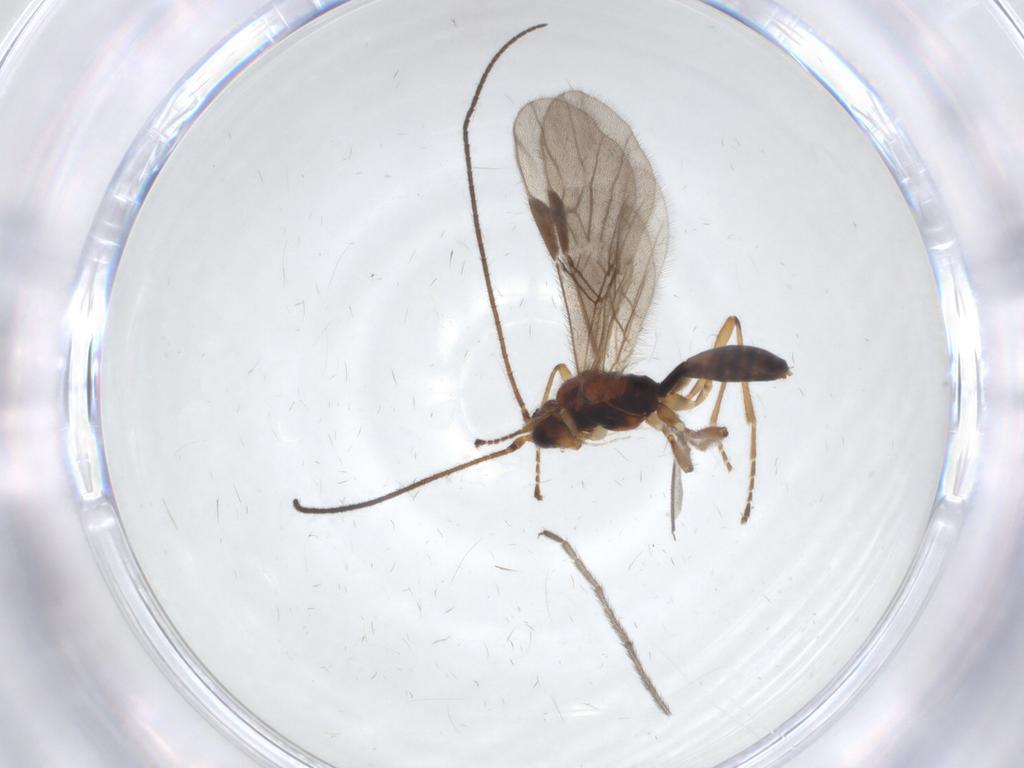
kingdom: Animalia
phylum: Arthropoda
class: Insecta
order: Hymenoptera
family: Braconidae
